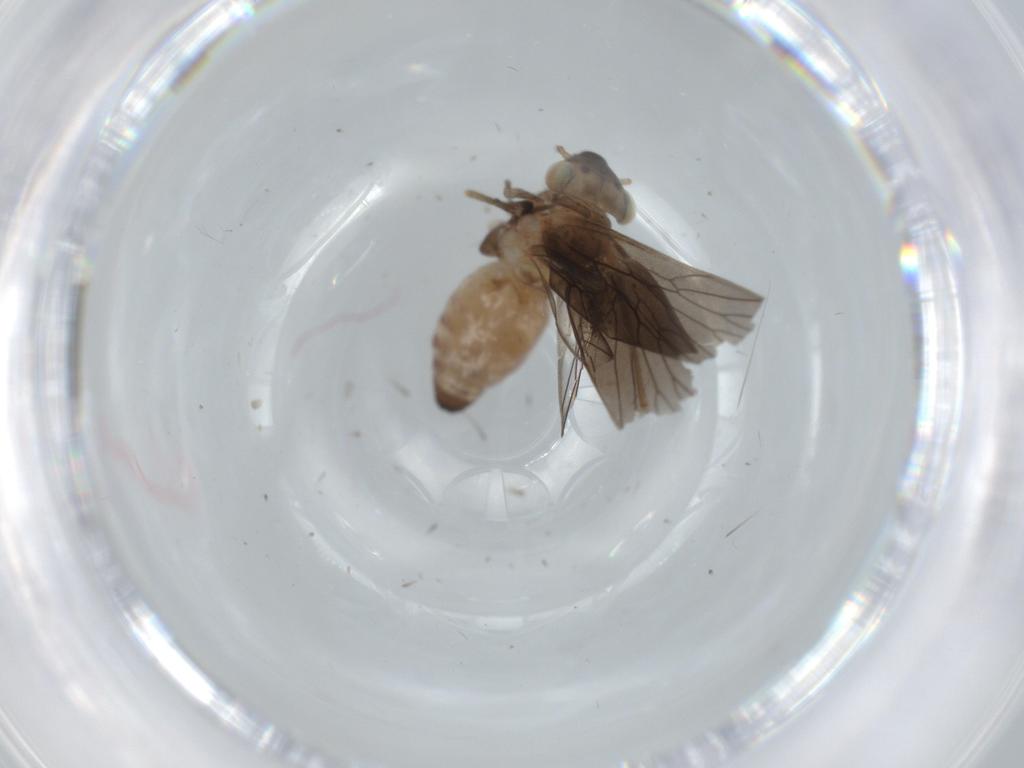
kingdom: Animalia
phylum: Arthropoda
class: Insecta
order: Psocodea
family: Lepidopsocidae
